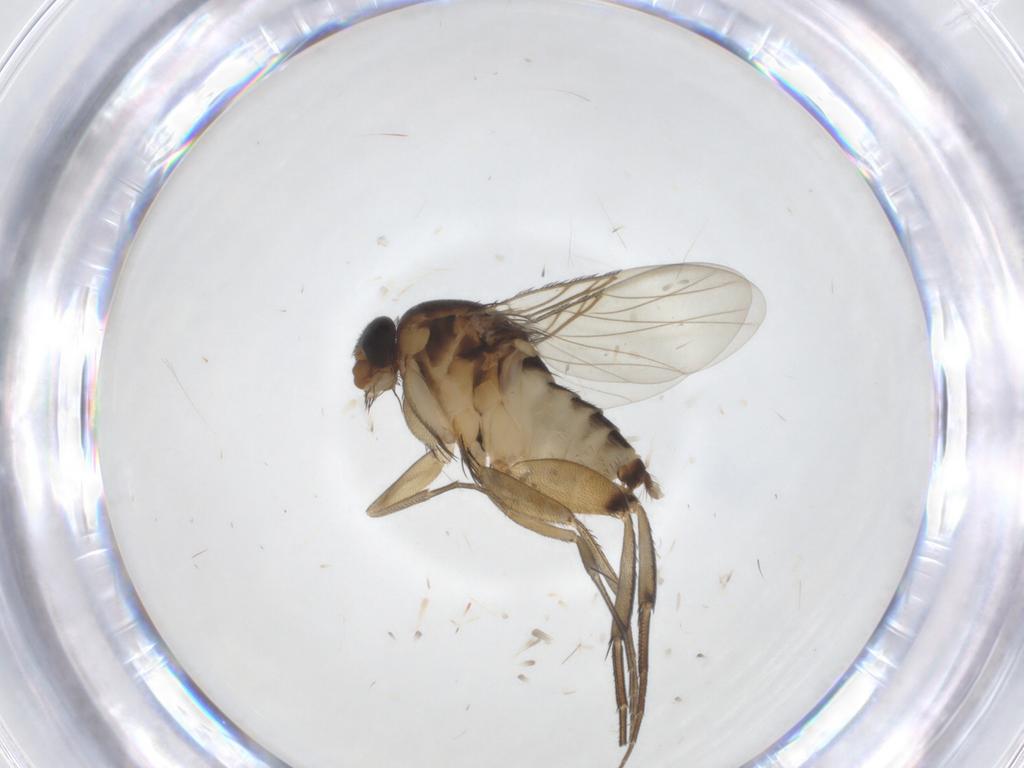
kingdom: Animalia
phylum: Arthropoda
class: Insecta
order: Diptera
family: Phoridae
